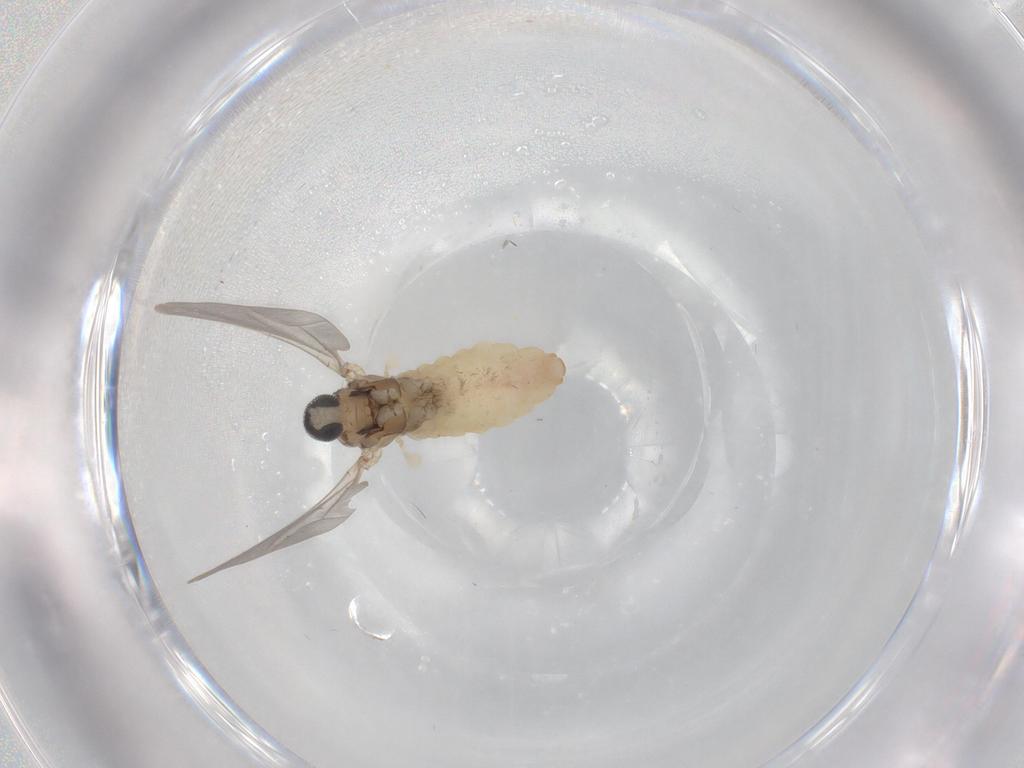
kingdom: Animalia
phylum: Arthropoda
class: Insecta
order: Diptera
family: Cecidomyiidae
